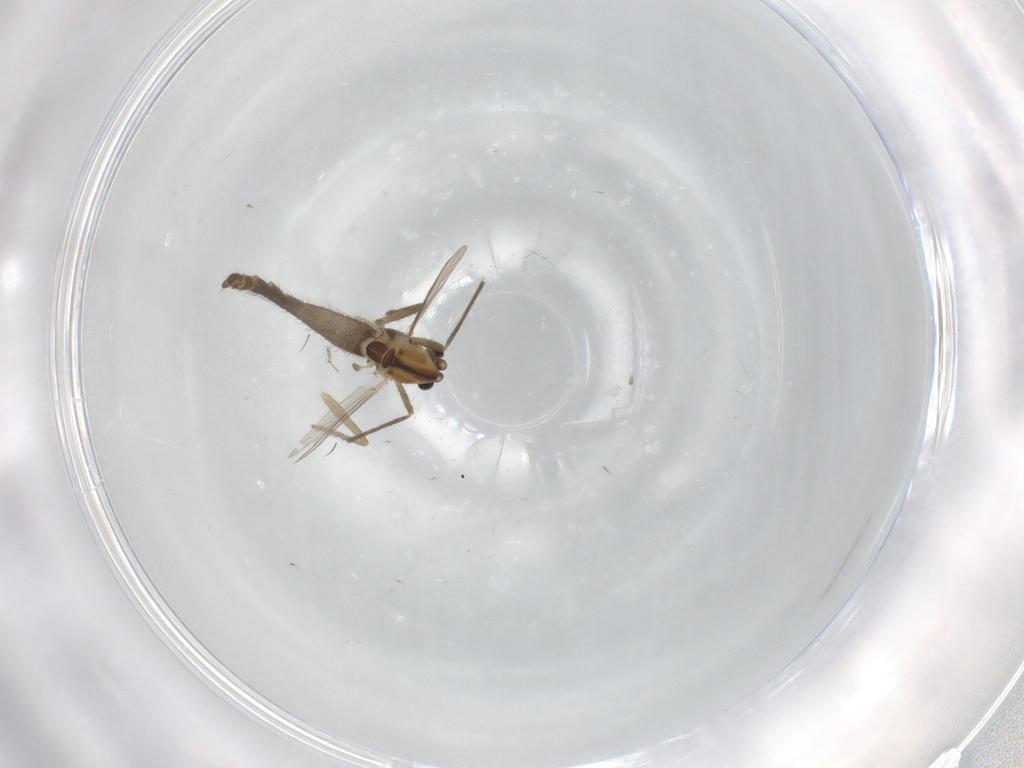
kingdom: Animalia
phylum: Arthropoda
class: Insecta
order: Diptera
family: Chironomidae
